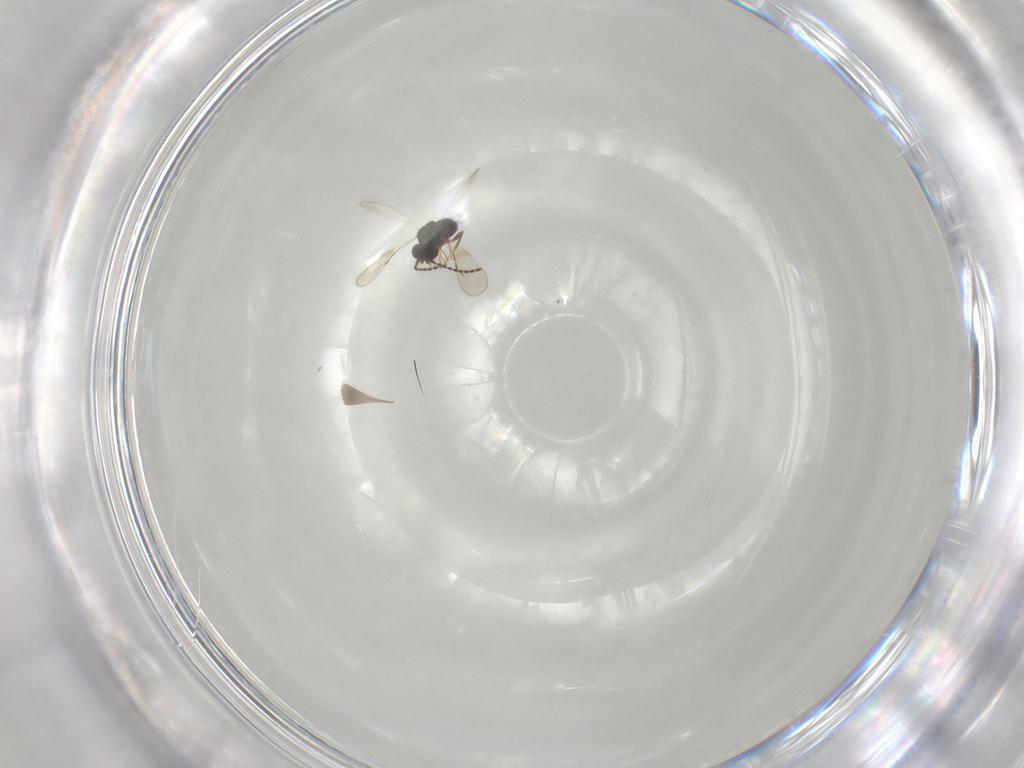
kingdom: Animalia
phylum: Arthropoda
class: Insecta
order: Hymenoptera
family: Ceraphronidae
